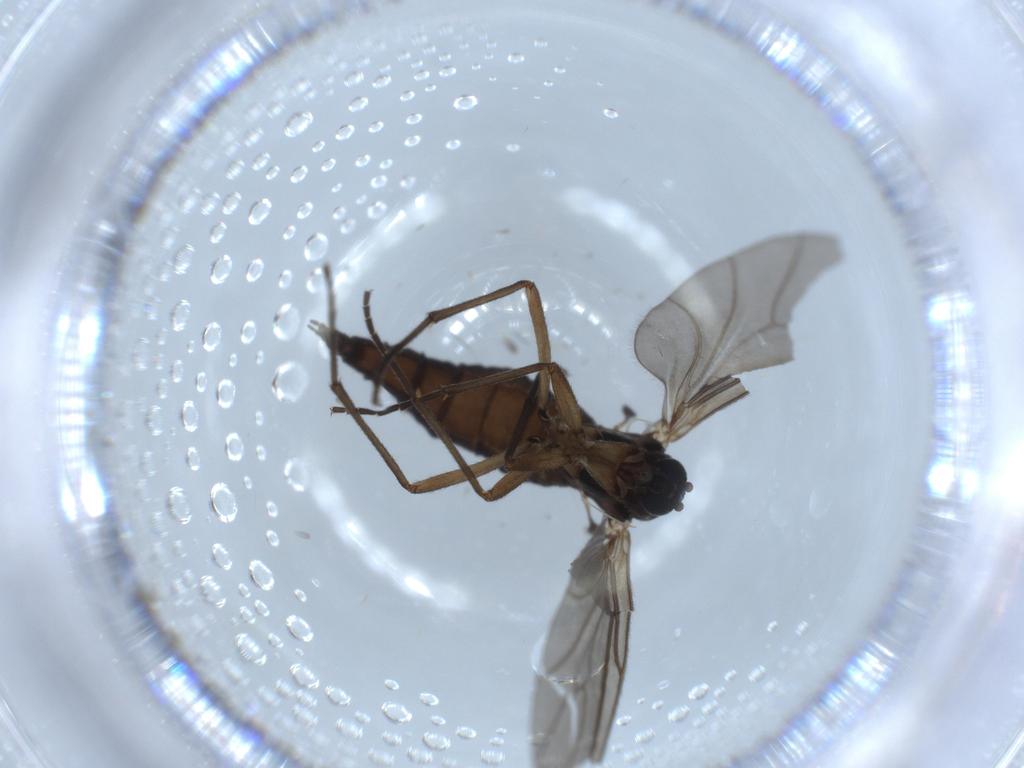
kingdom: Animalia
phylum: Arthropoda
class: Insecta
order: Diptera
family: Sciaridae
